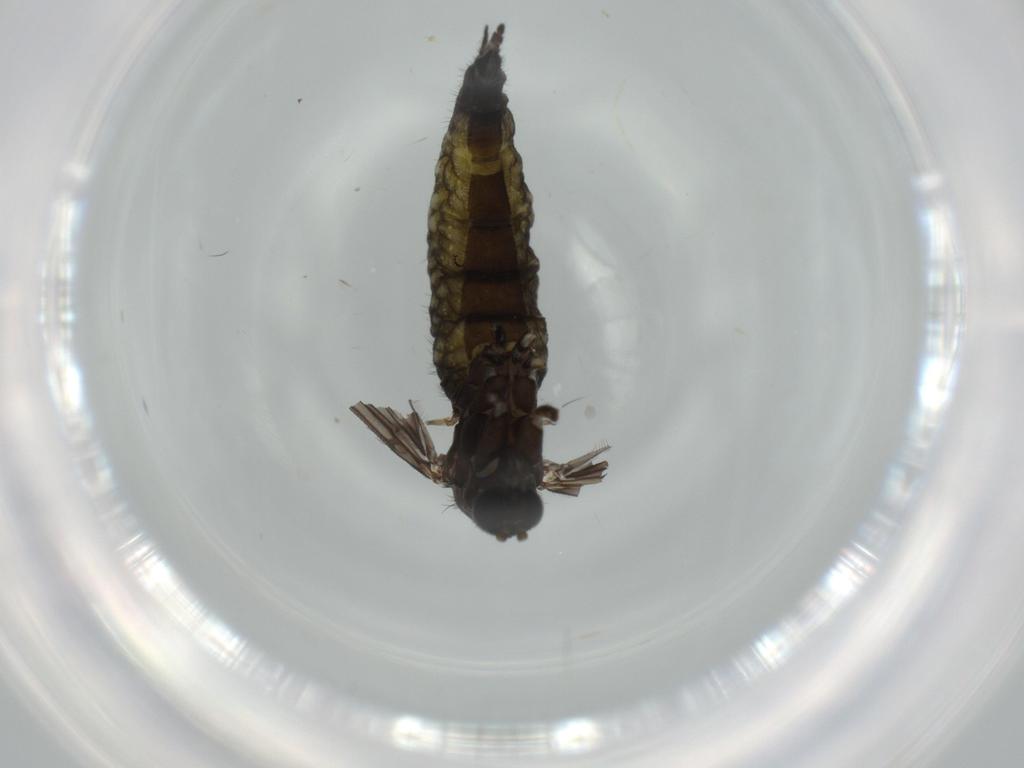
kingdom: Animalia
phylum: Arthropoda
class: Insecta
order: Diptera
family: Sciaridae
